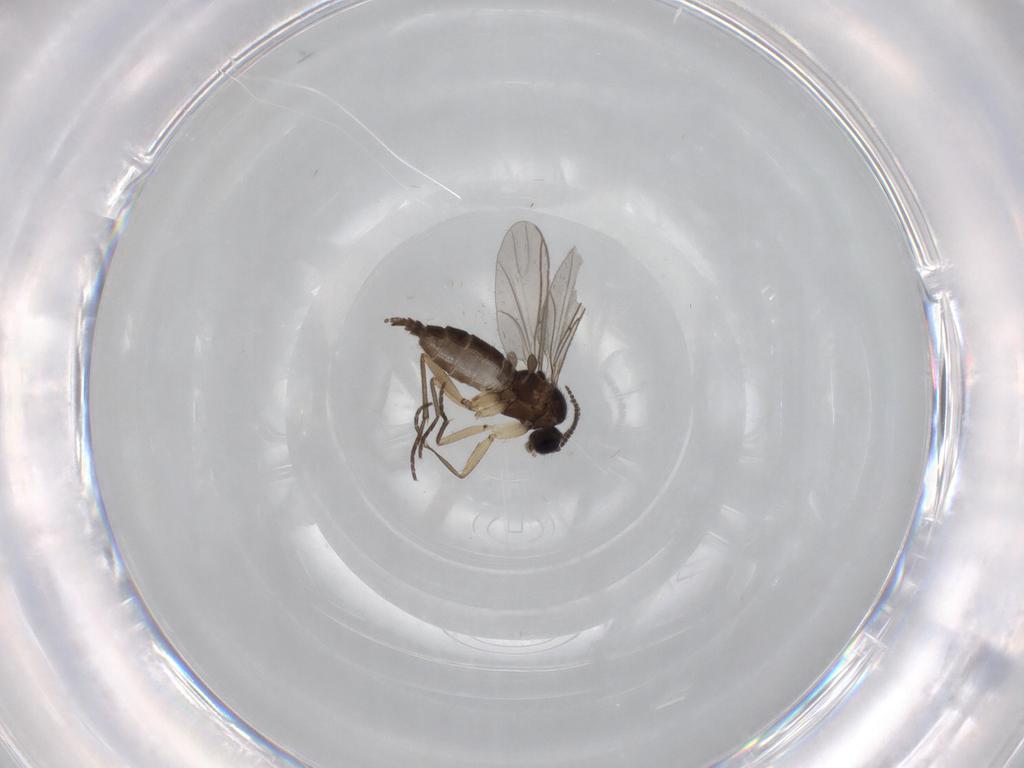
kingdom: Animalia
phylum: Arthropoda
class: Insecta
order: Diptera
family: Sciaridae
